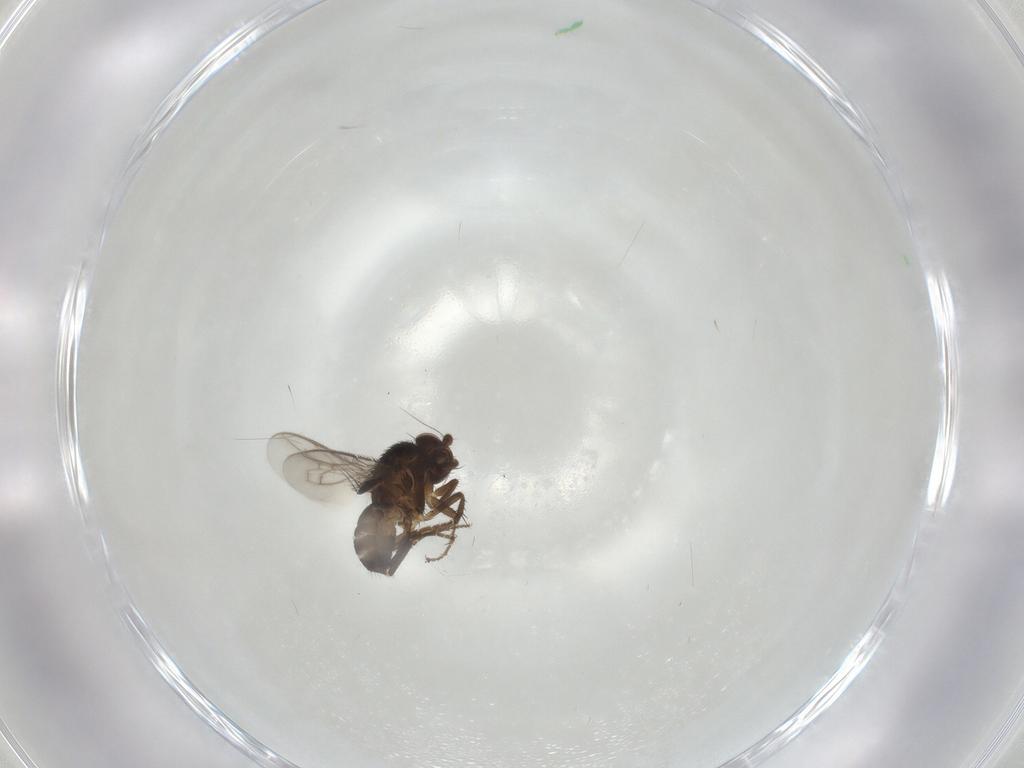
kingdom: Animalia
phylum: Arthropoda
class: Insecta
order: Diptera
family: Sphaeroceridae
